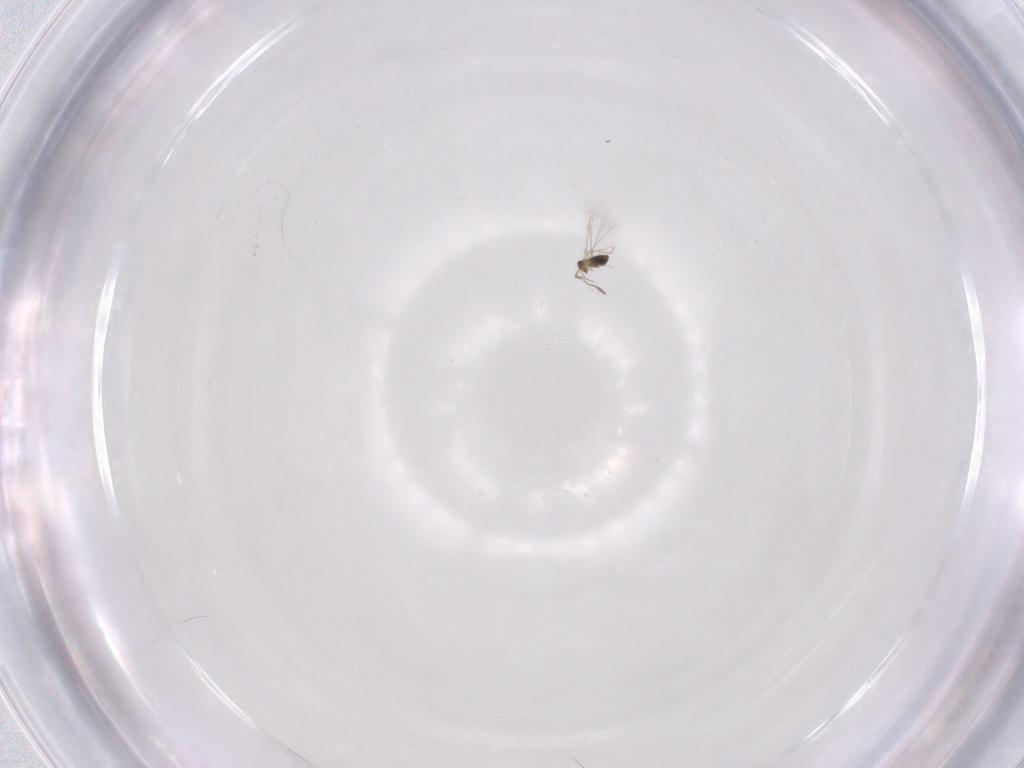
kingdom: Animalia
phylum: Arthropoda
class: Insecta
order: Hymenoptera
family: Mymaridae
